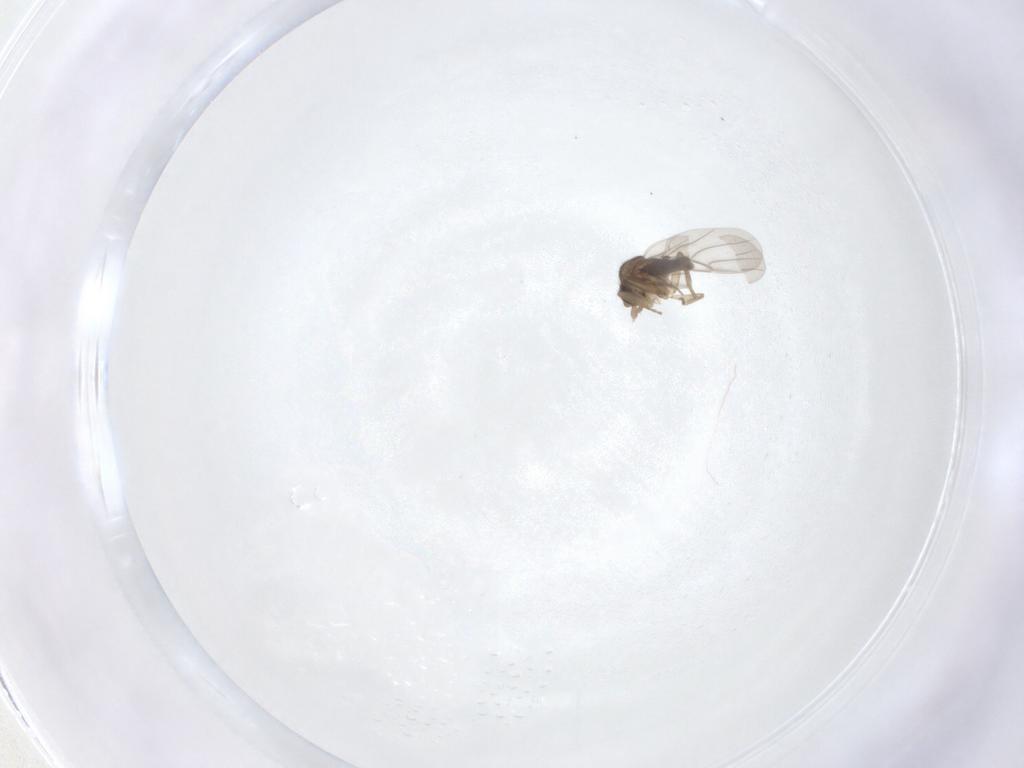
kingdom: Animalia
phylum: Arthropoda
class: Insecta
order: Diptera
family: Phoridae
